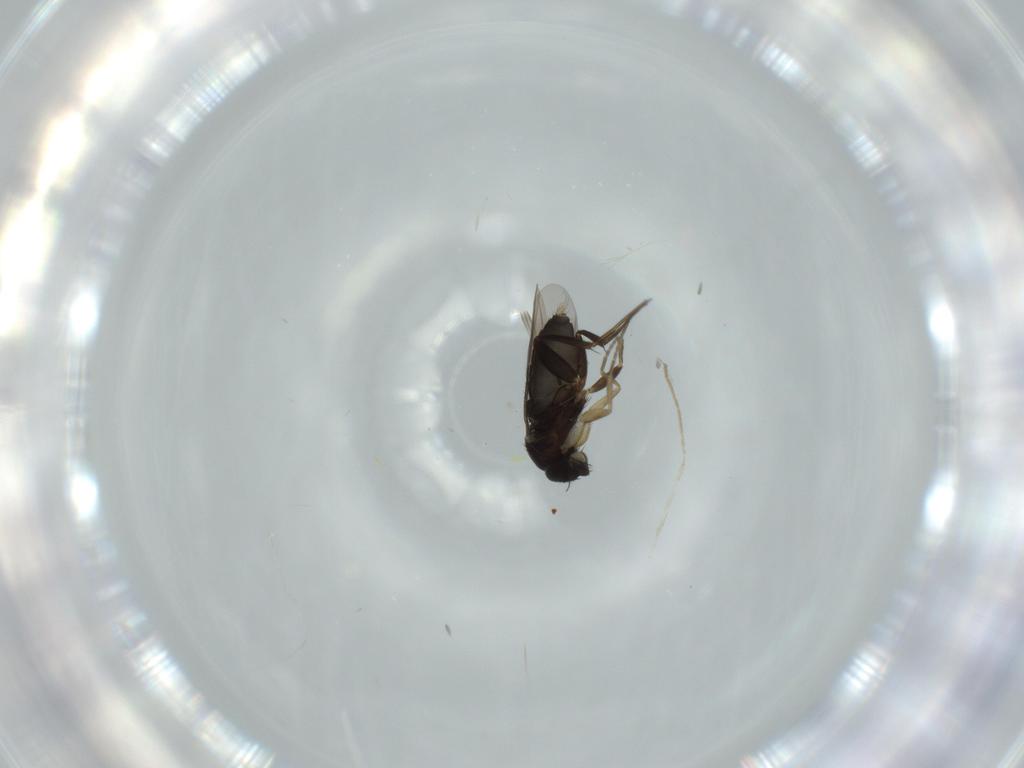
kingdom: Animalia
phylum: Arthropoda
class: Insecta
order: Diptera
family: Phoridae
